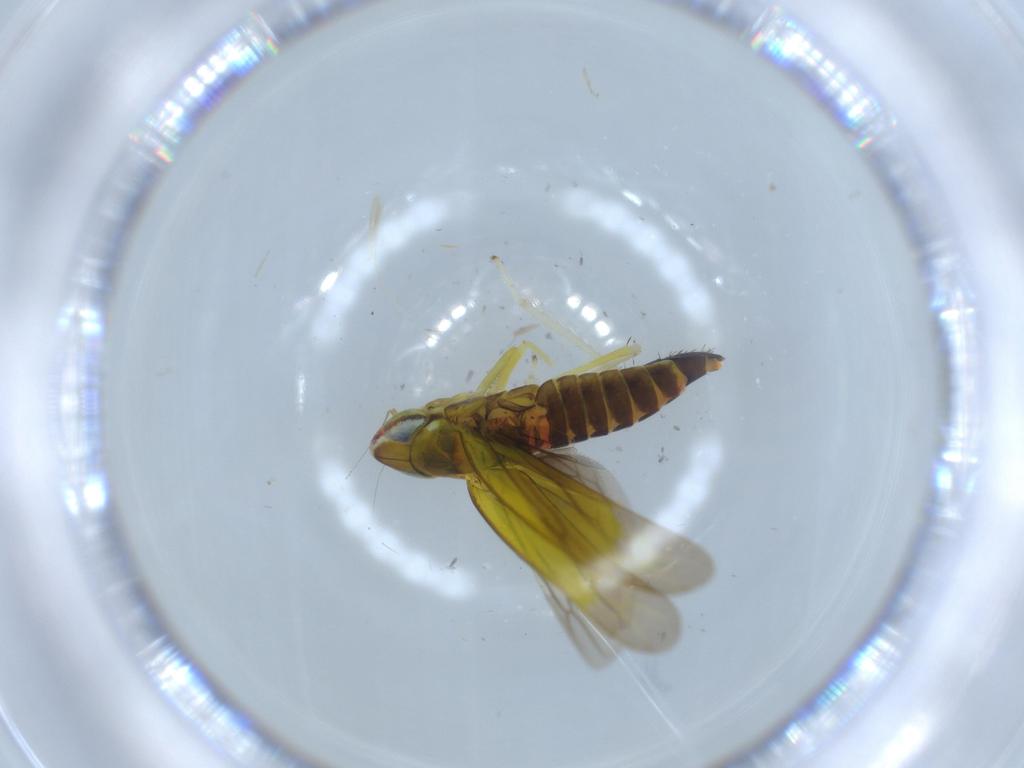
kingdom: Animalia
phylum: Arthropoda
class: Insecta
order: Hemiptera
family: Cicadellidae
